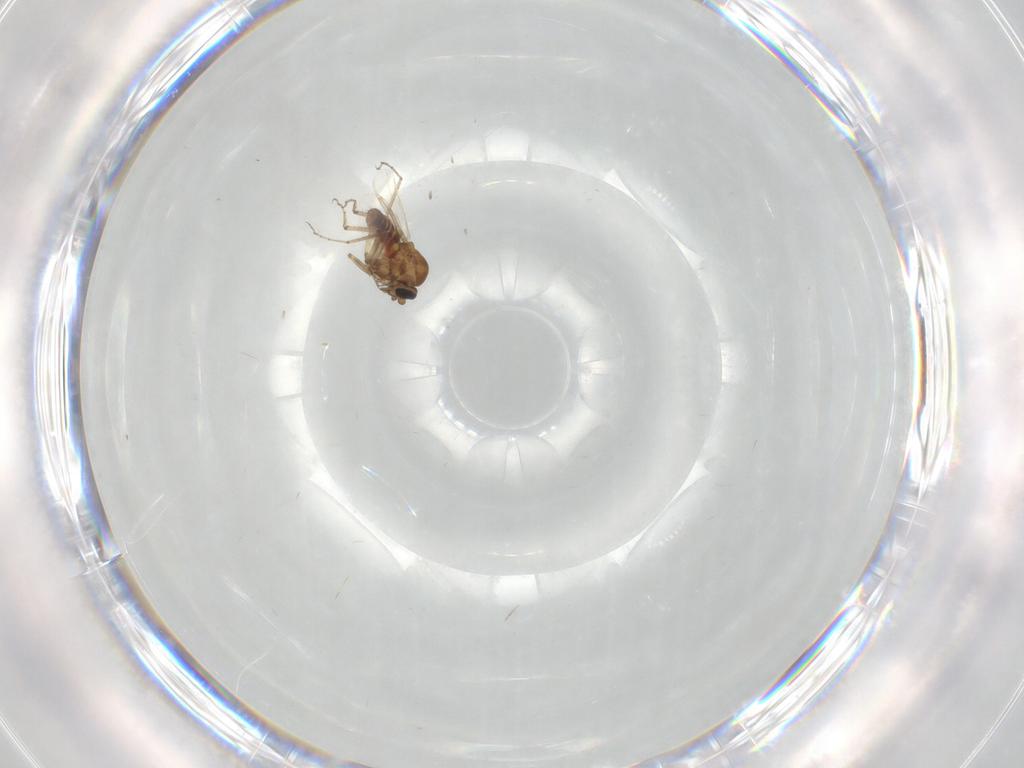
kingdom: Animalia
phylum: Arthropoda
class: Insecta
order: Diptera
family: Ceratopogonidae
